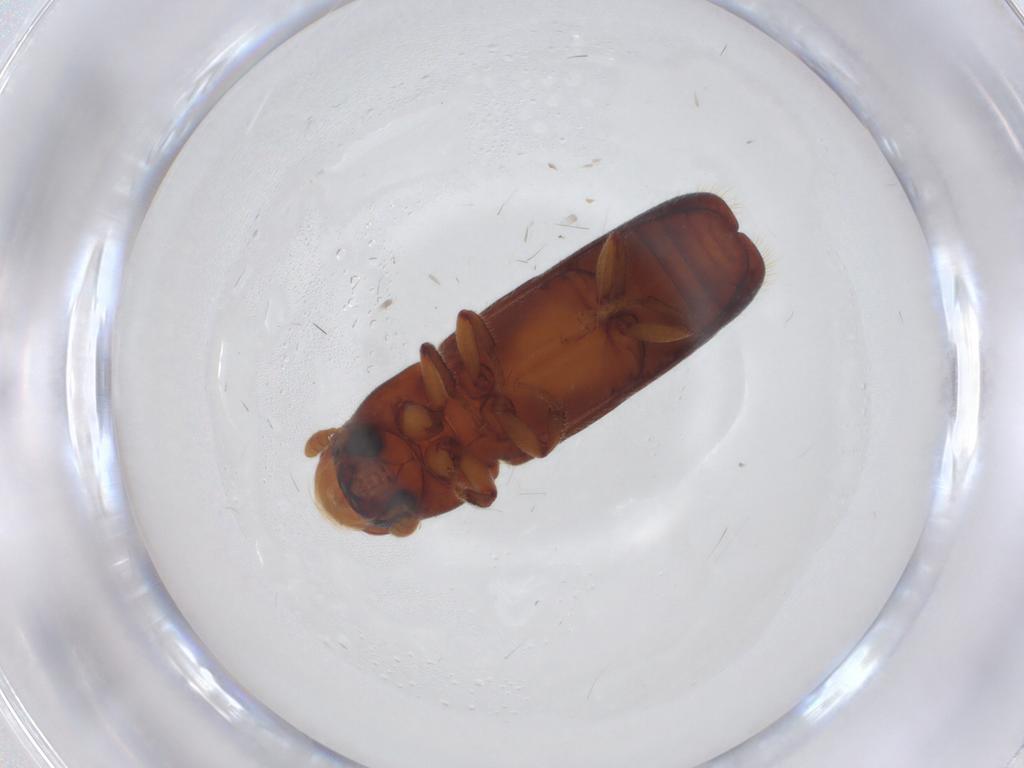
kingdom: Animalia
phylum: Arthropoda
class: Insecta
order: Coleoptera
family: Curculionidae
